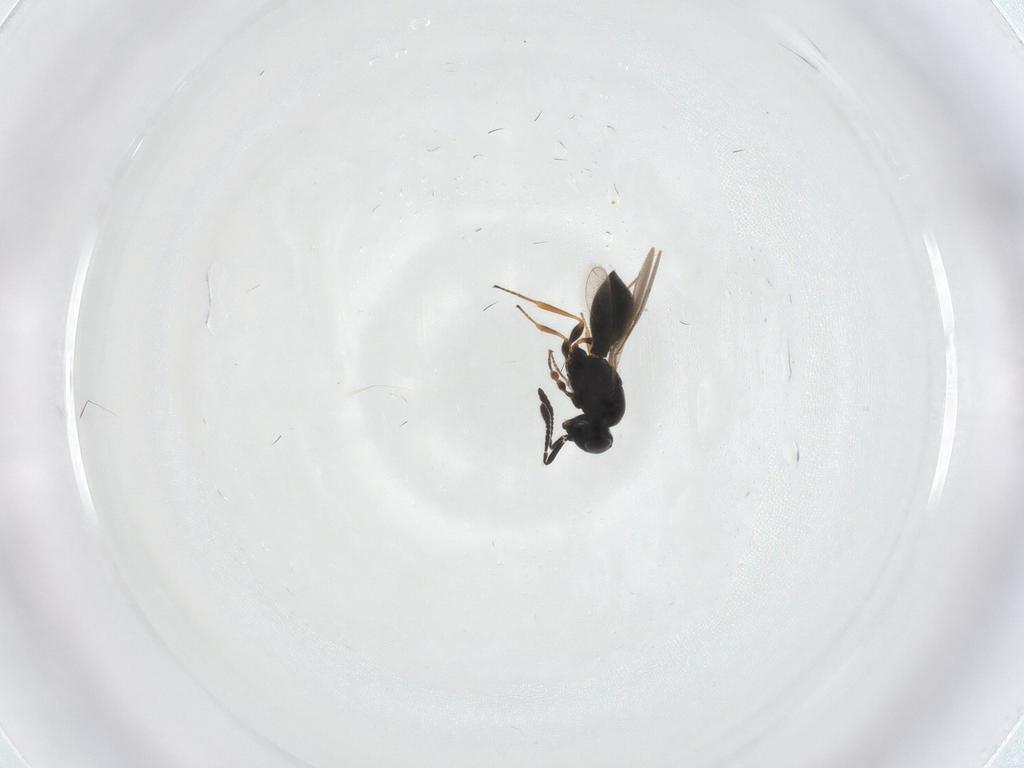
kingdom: Animalia
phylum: Arthropoda
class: Insecta
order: Hymenoptera
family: Scelionidae
